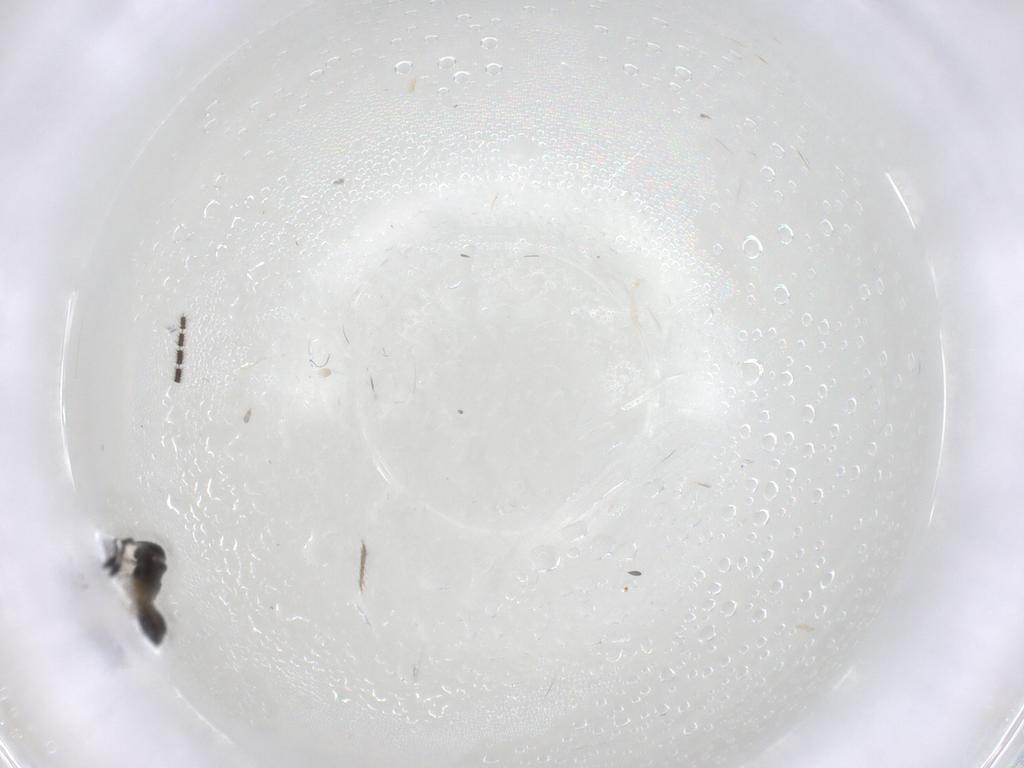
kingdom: Animalia
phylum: Arthropoda
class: Insecta
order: Hymenoptera
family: Scelionidae
